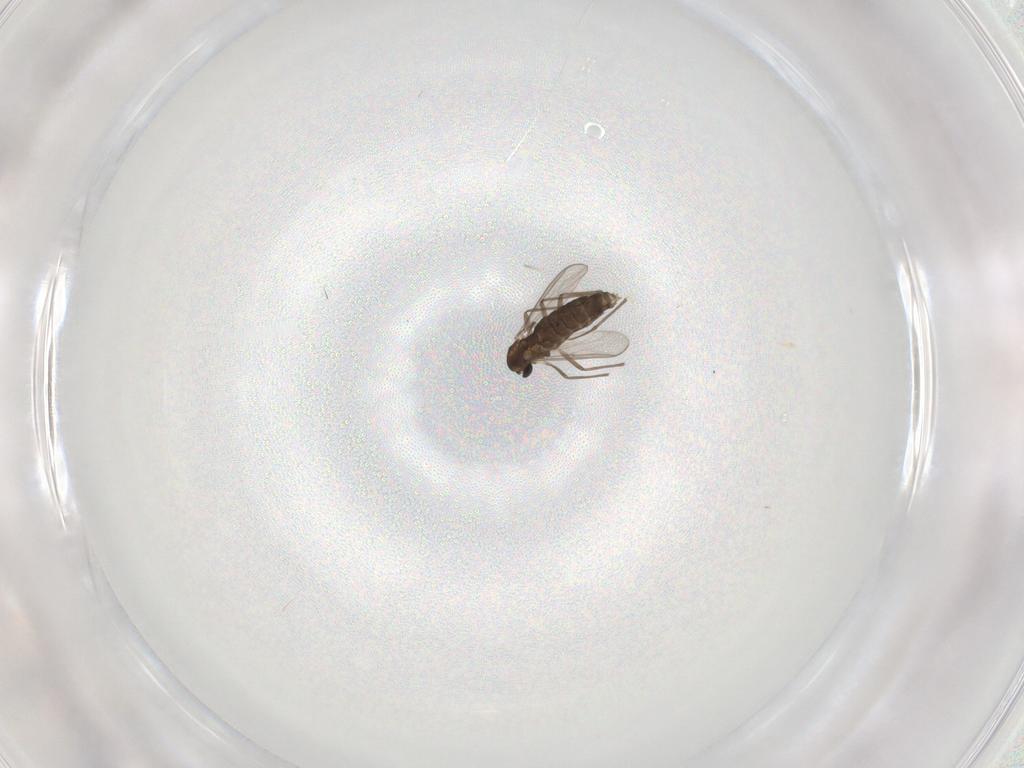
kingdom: Animalia
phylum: Arthropoda
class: Insecta
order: Diptera
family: Chironomidae
